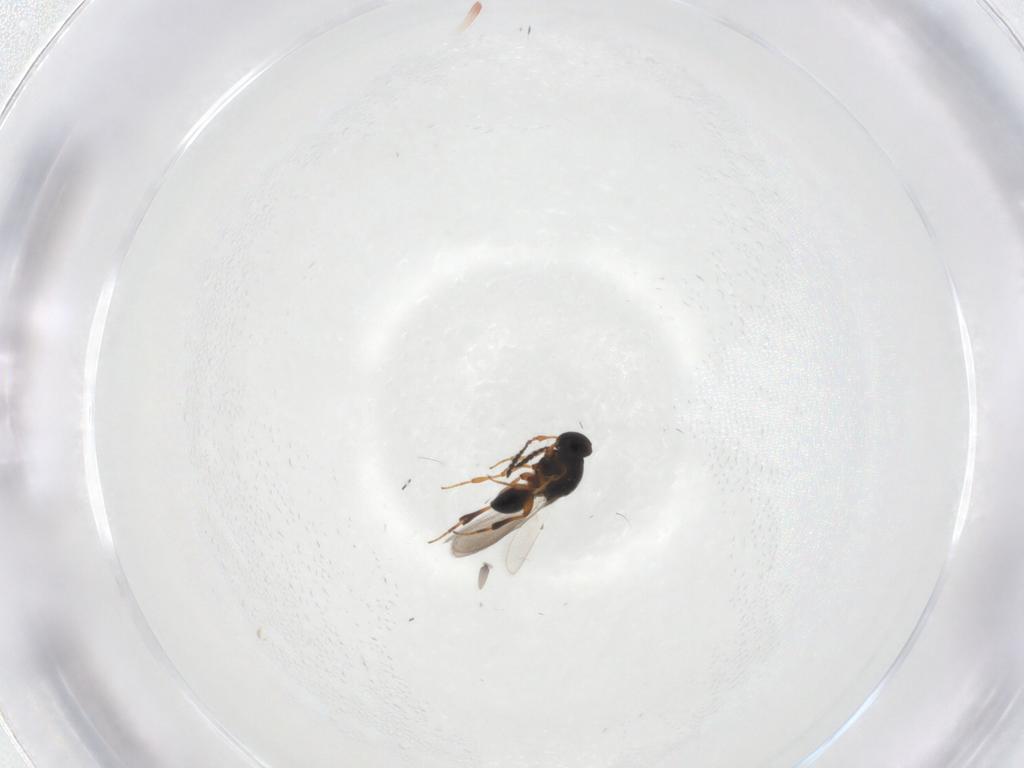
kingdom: Animalia
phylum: Arthropoda
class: Insecta
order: Hymenoptera
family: Platygastridae
